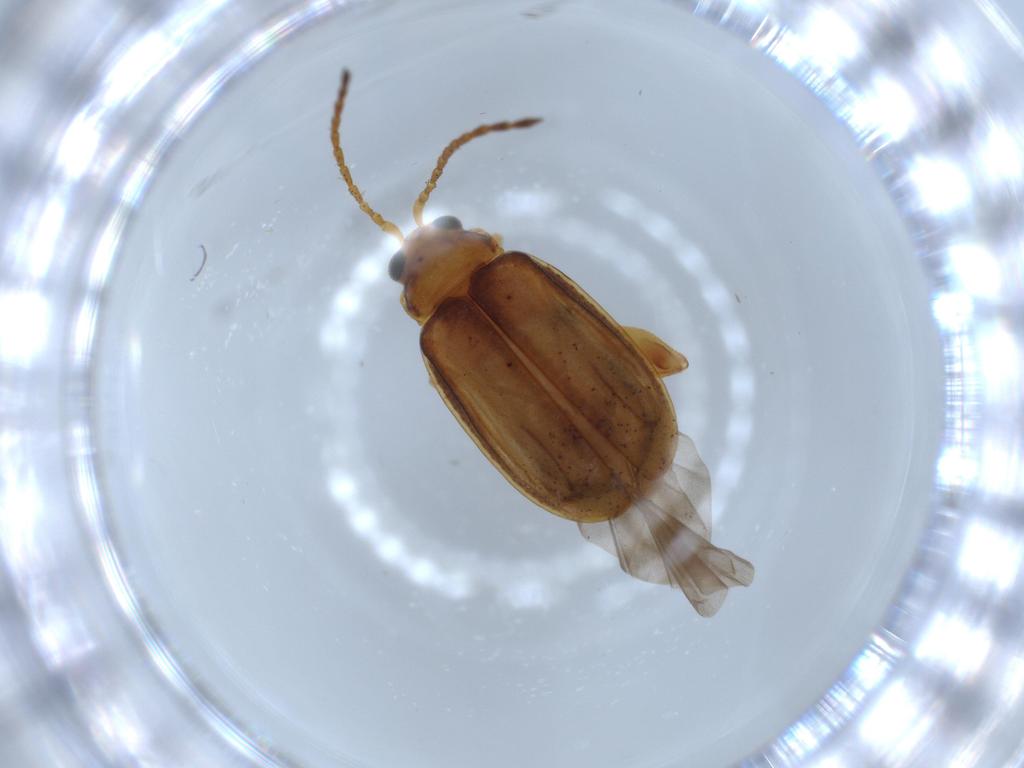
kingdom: Animalia
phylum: Arthropoda
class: Insecta
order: Coleoptera
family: Chrysomelidae
